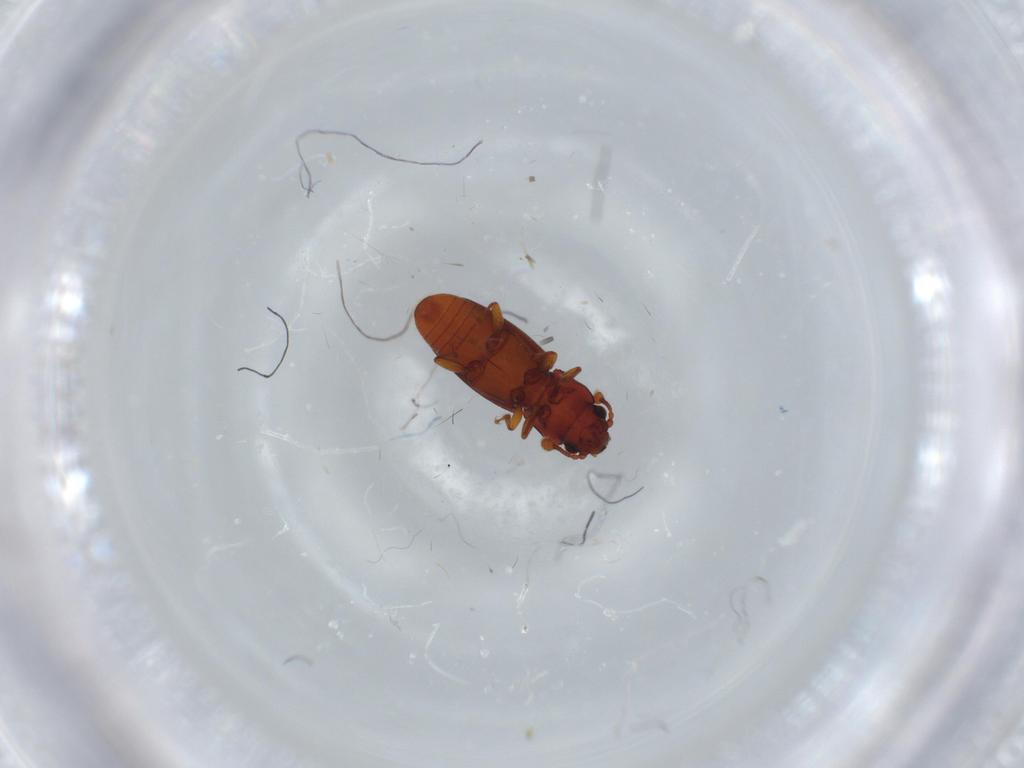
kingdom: Animalia
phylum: Arthropoda
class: Insecta
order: Coleoptera
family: Monotomidae
